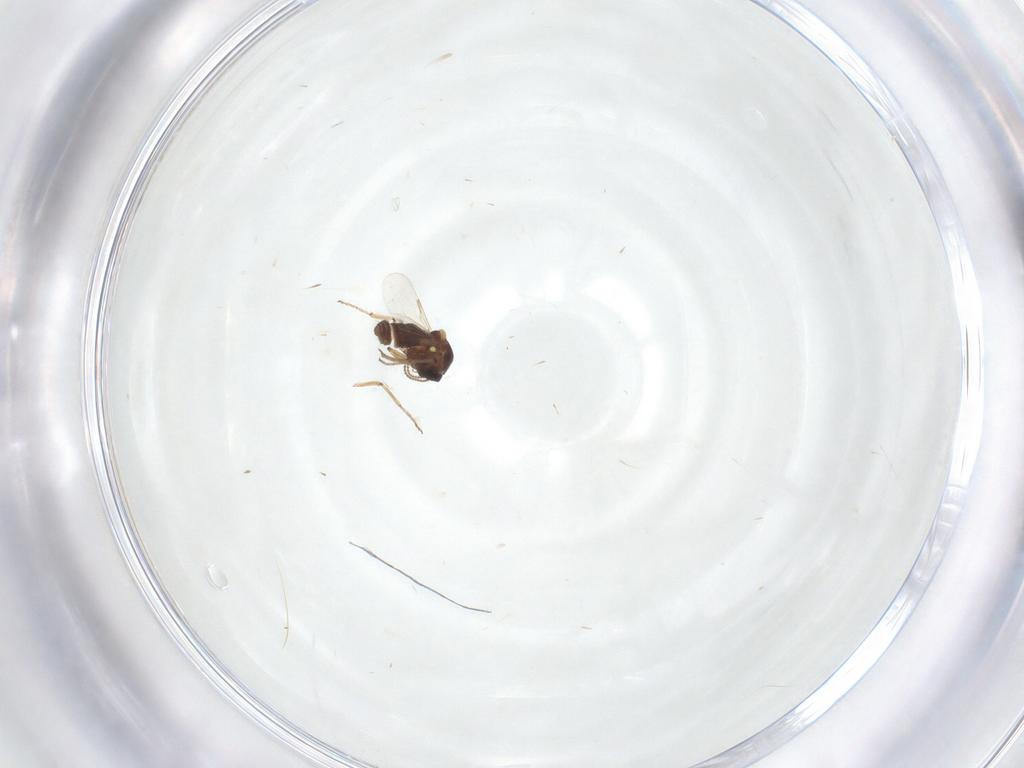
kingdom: Animalia
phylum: Arthropoda
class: Insecta
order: Diptera
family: Ceratopogonidae
